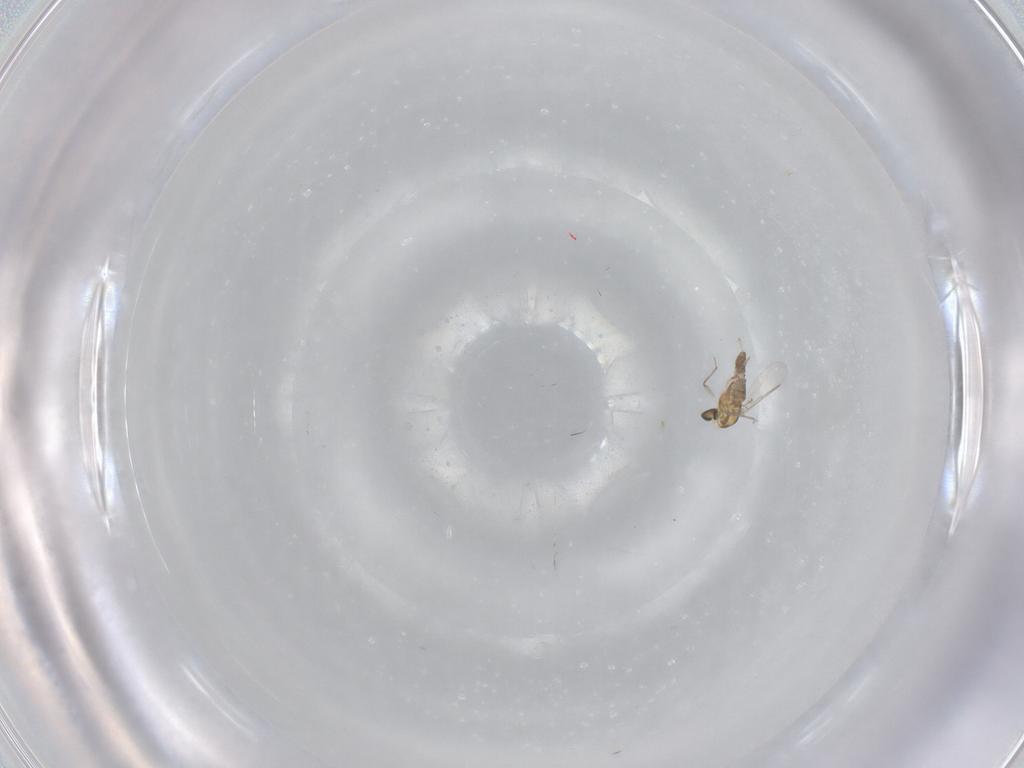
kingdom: Animalia
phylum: Arthropoda
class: Insecta
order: Diptera
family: Chironomidae
